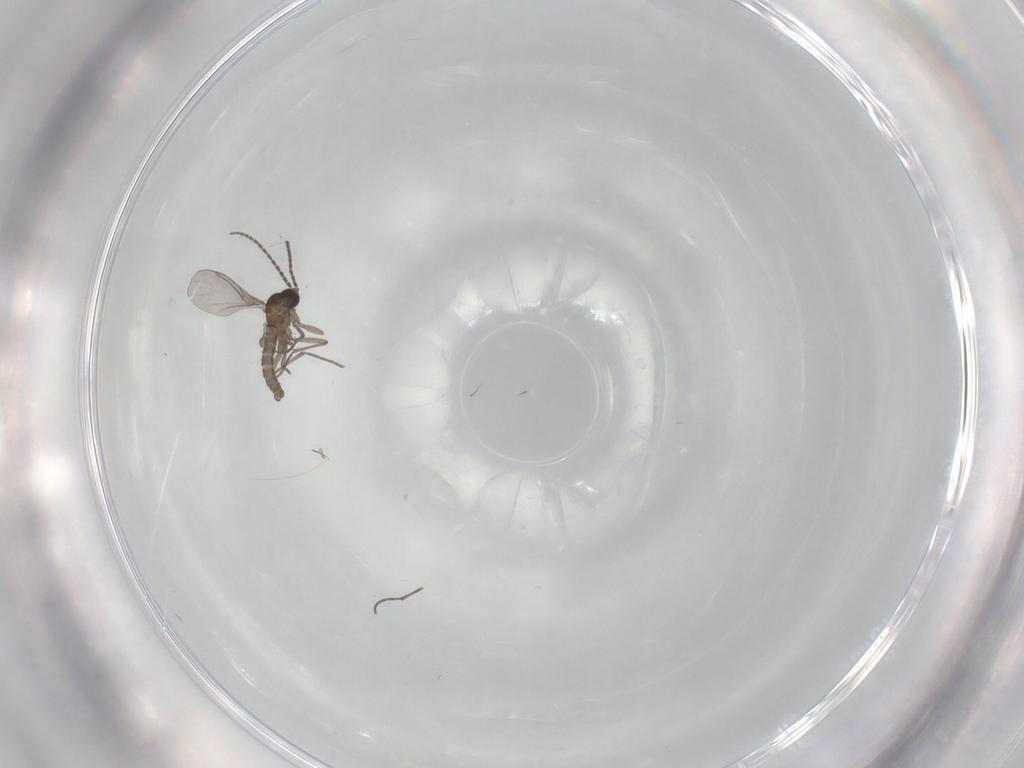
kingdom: Animalia
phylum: Arthropoda
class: Insecta
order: Diptera
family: Sciaridae
